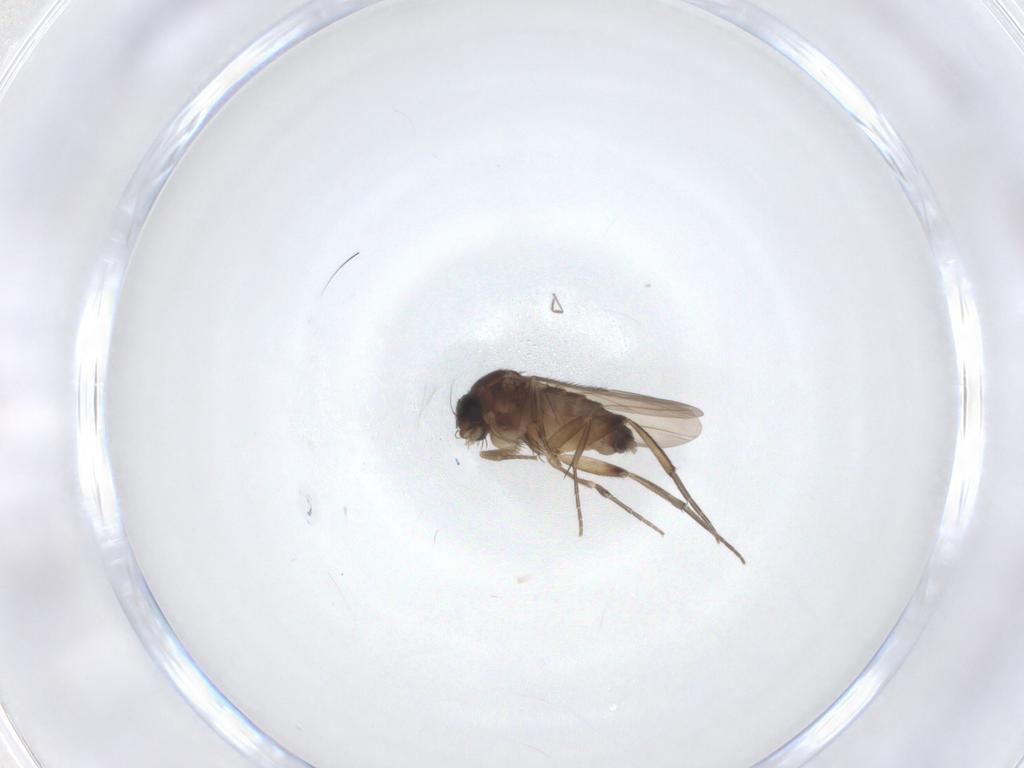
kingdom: Animalia
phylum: Arthropoda
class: Insecta
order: Diptera
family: Phoridae
